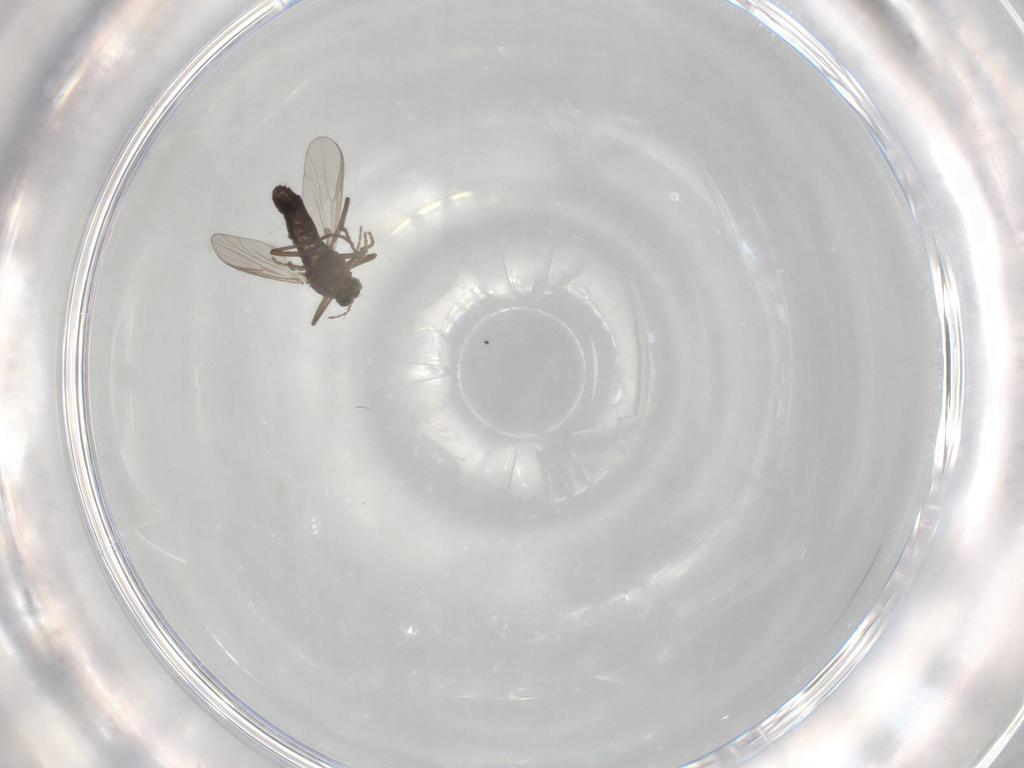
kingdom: Animalia
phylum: Arthropoda
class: Insecta
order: Diptera
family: Chironomidae
